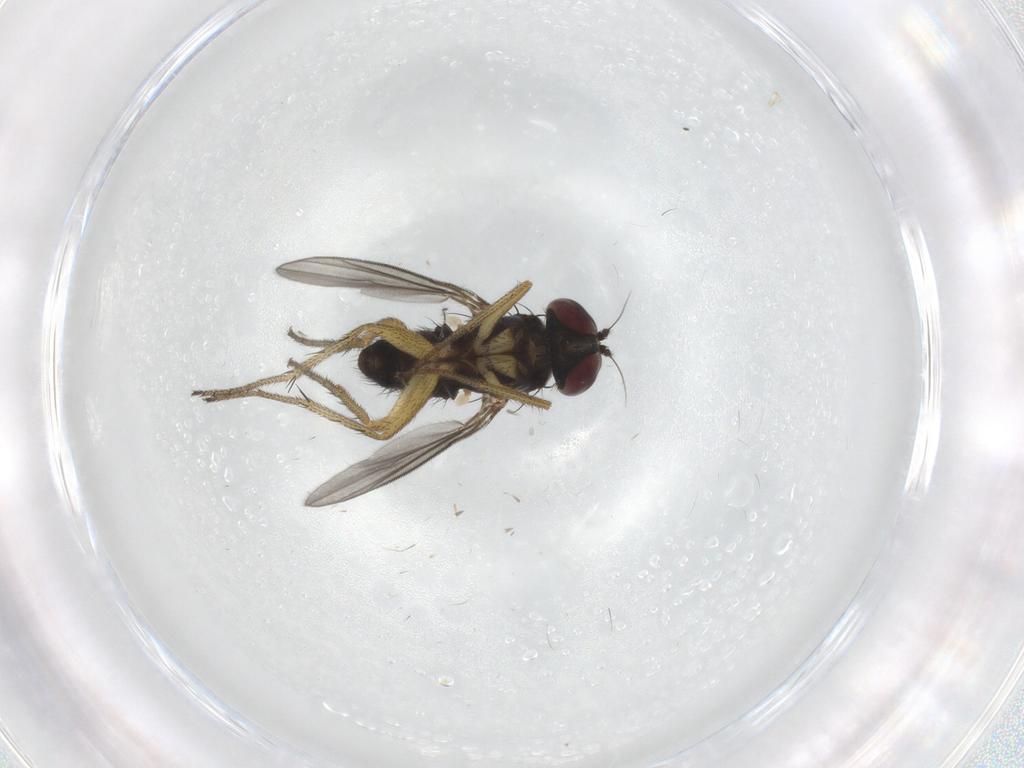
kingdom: Animalia
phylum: Arthropoda
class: Insecta
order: Diptera
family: Ceratopogonidae
